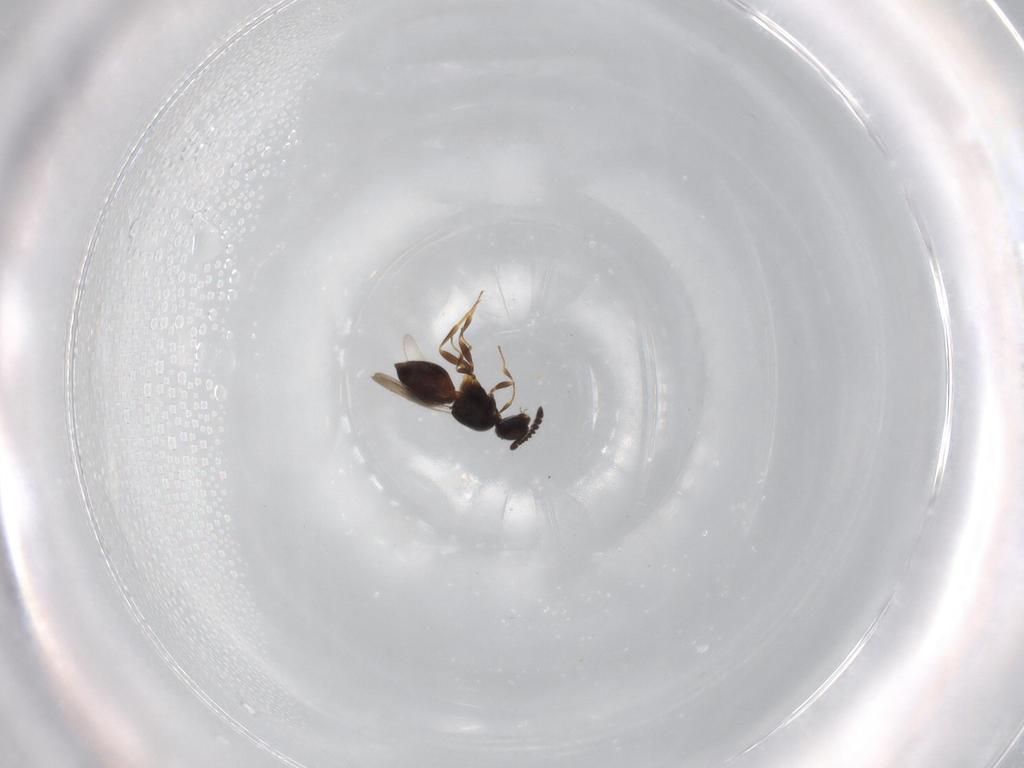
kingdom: Animalia
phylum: Arthropoda
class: Insecta
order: Hymenoptera
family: Ceraphronidae
